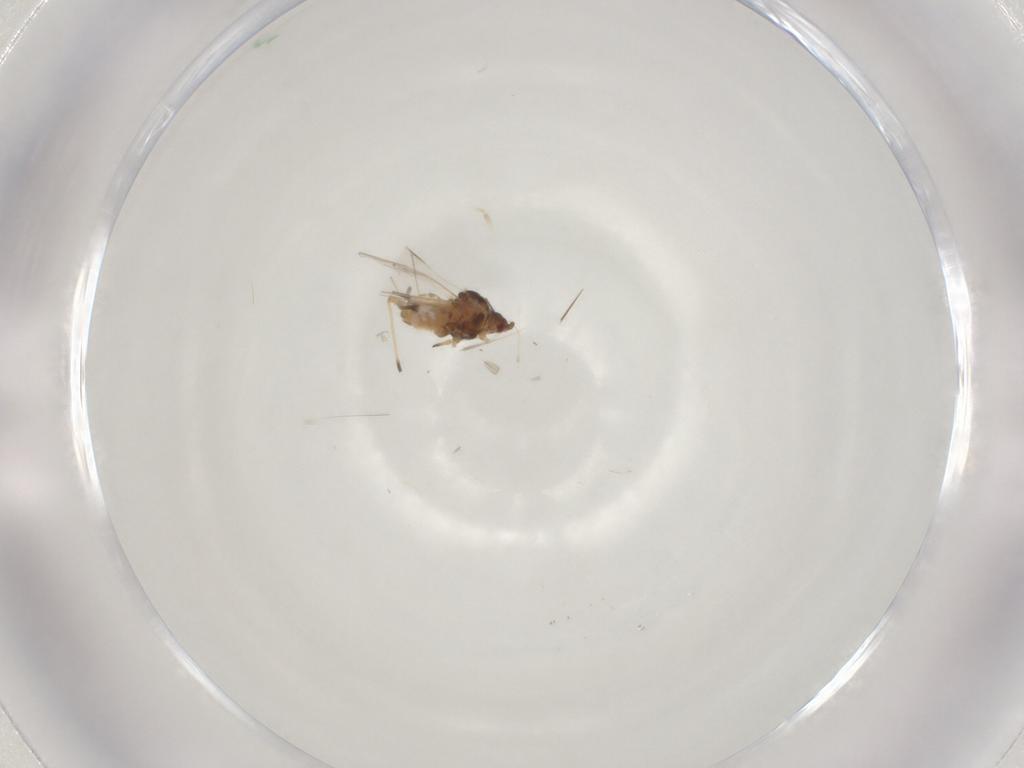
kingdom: Animalia
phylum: Arthropoda
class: Insecta
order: Hemiptera
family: Aphididae
